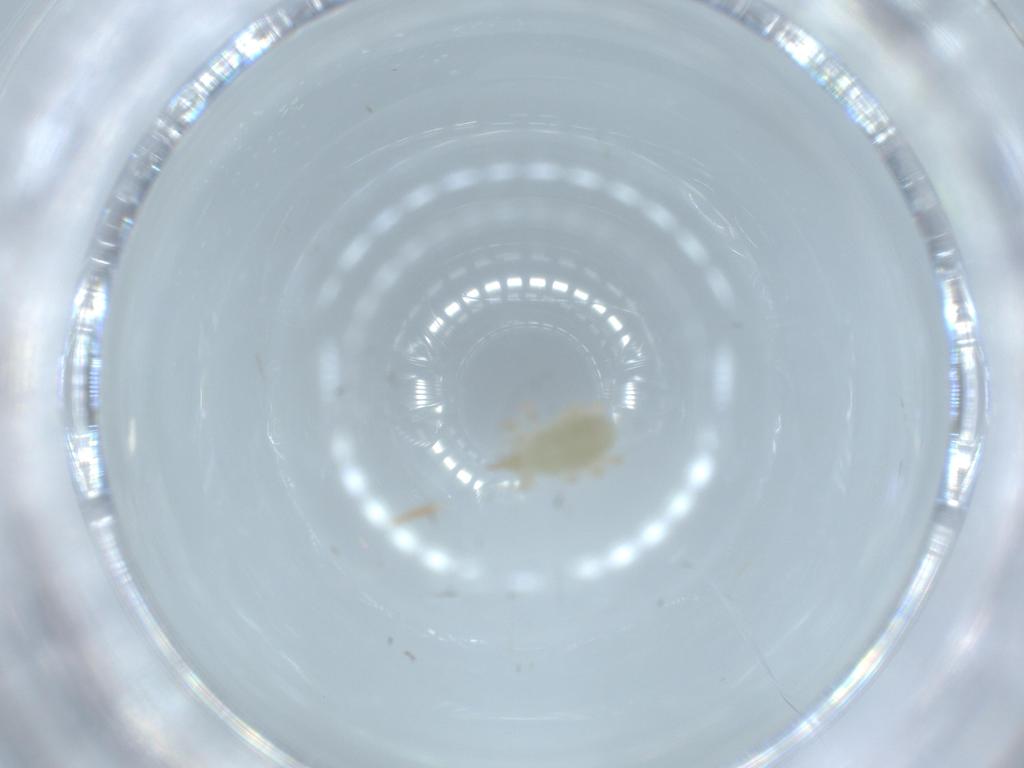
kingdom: Animalia
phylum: Arthropoda
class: Arachnida
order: Trombidiformes
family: Bdellidae
